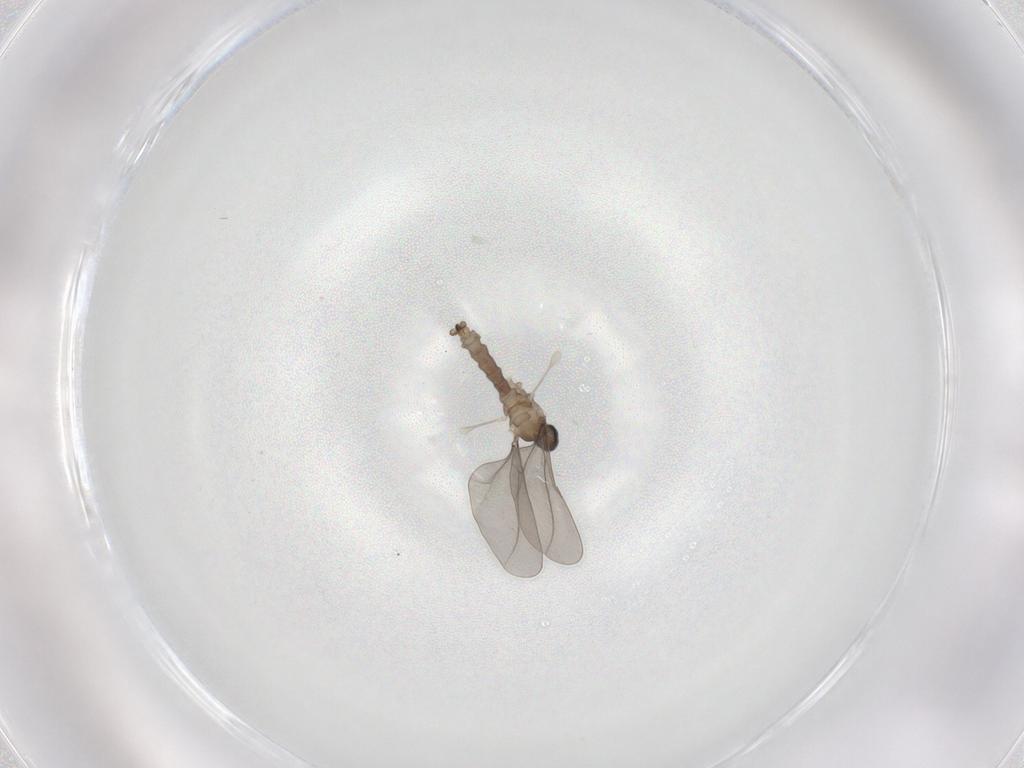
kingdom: Animalia
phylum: Arthropoda
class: Insecta
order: Diptera
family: Cecidomyiidae
